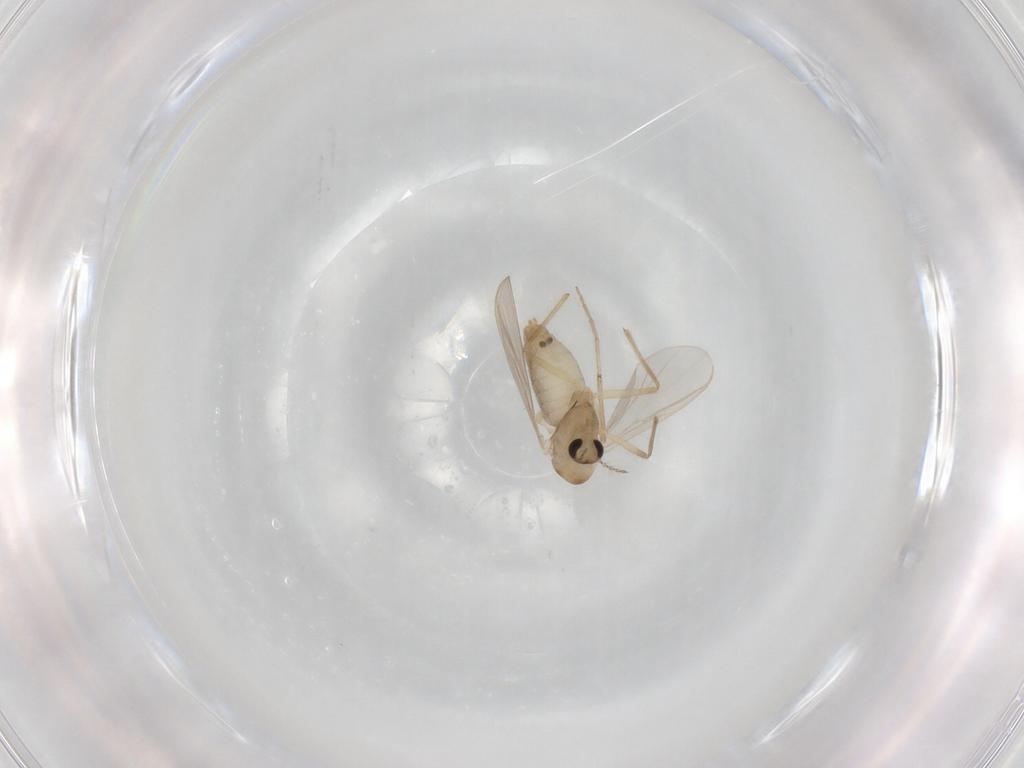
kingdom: Animalia
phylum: Arthropoda
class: Insecta
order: Diptera
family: Chironomidae
